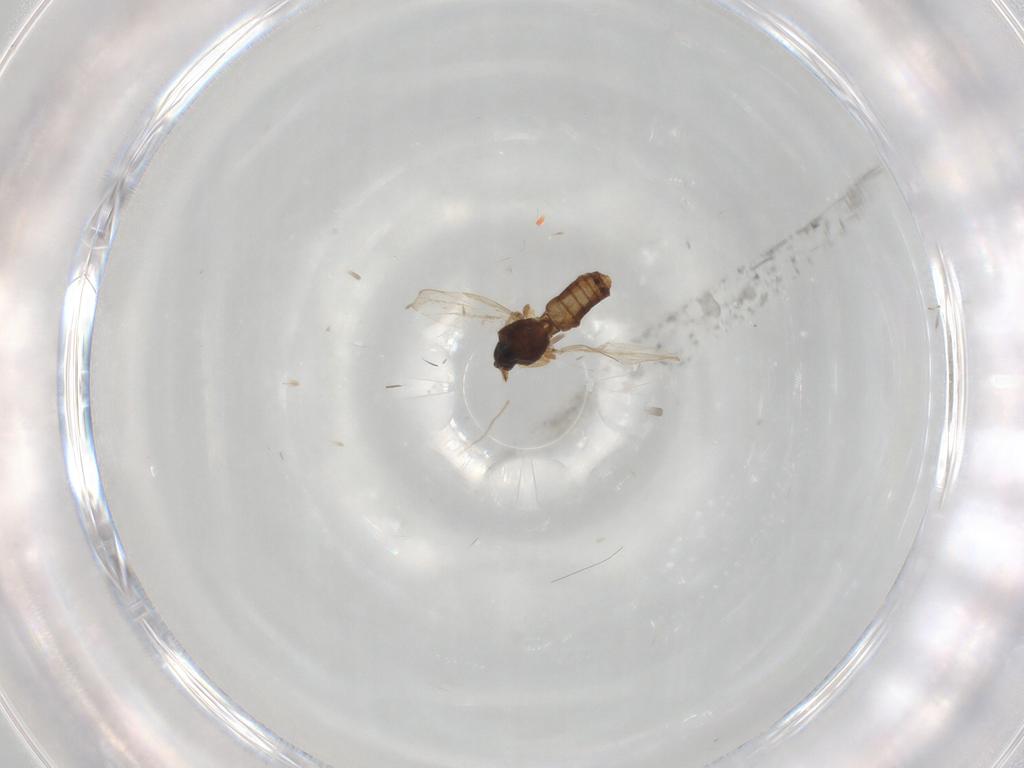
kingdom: Animalia
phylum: Arthropoda
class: Insecta
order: Diptera
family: Ceratopogonidae
